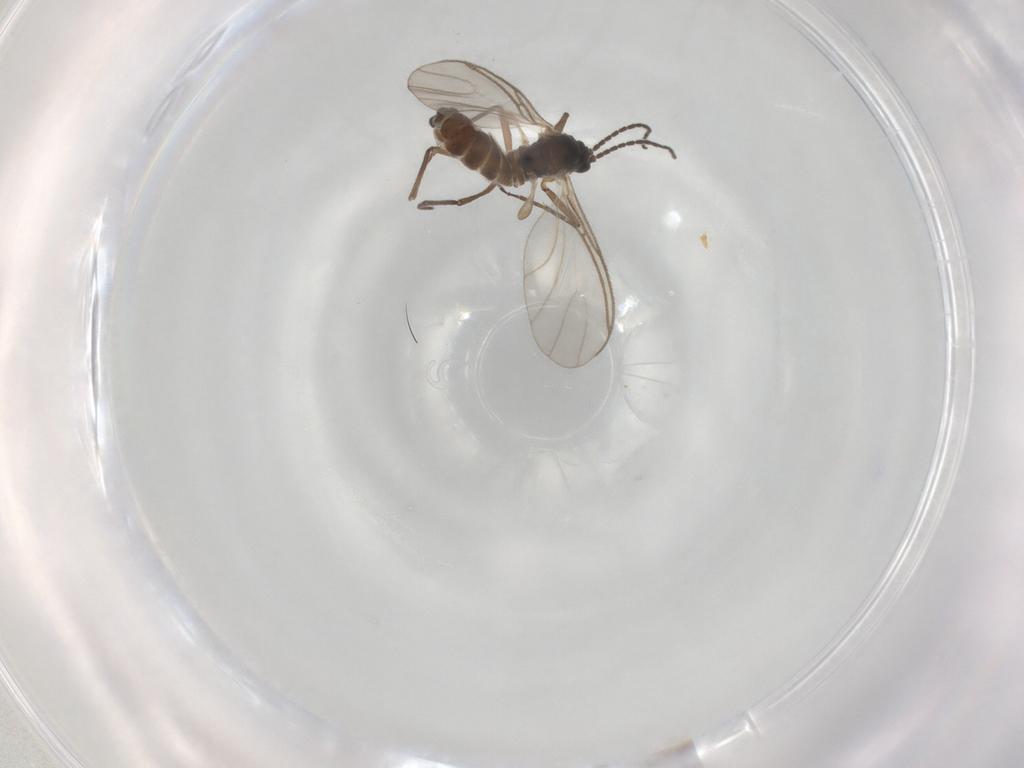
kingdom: Animalia
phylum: Arthropoda
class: Insecta
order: Diptera
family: Sciaridae
